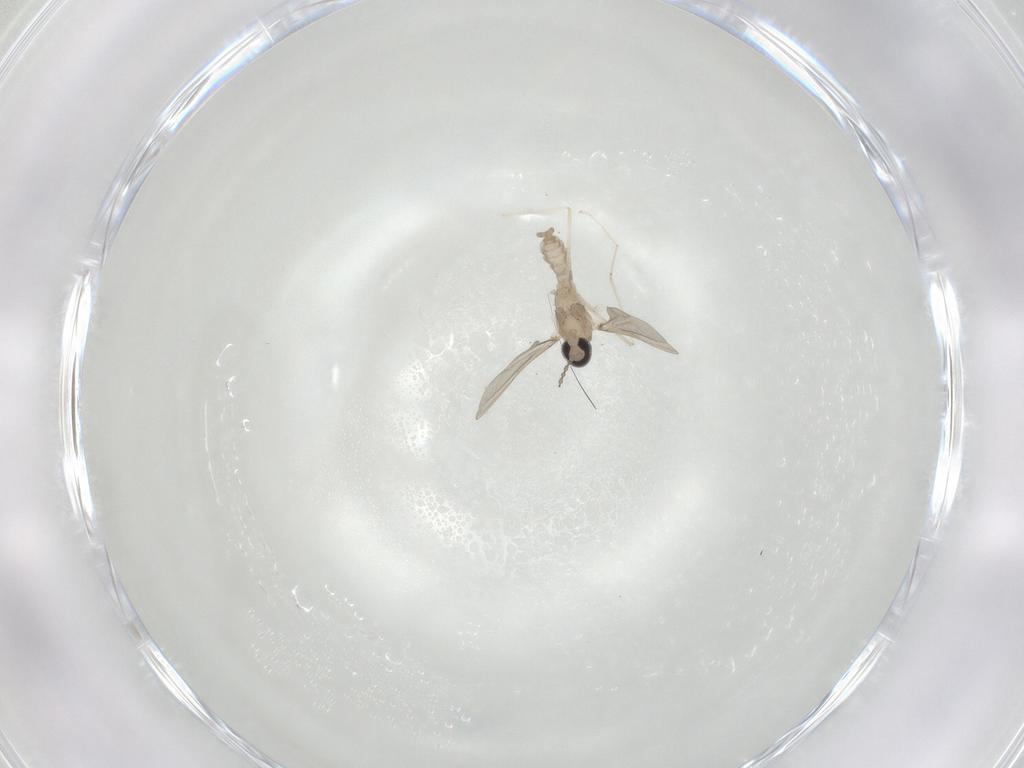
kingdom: Animalia
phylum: Arthropoda
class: Insecta
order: Diptera
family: Cecidomyiidae
